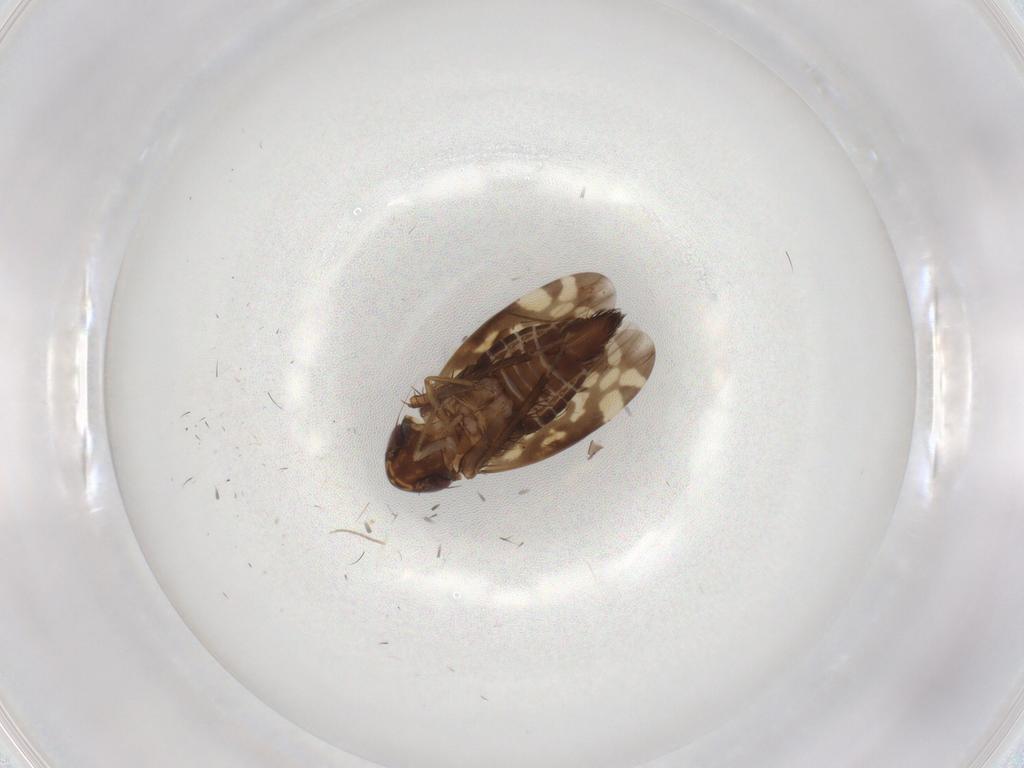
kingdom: Animalia
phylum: Arthropoda
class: Insecta
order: Hemiptera
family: Cicadellidae
